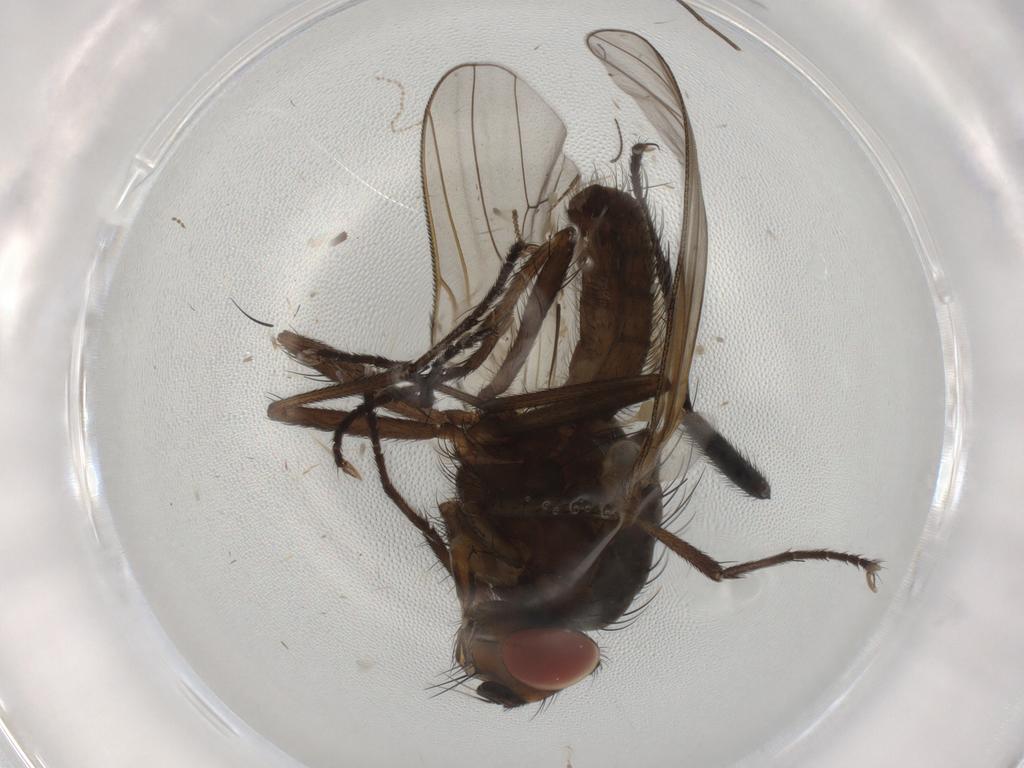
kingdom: Animalia
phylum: Arthropoda
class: Insecta
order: Diptera
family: Anthomyiidae
